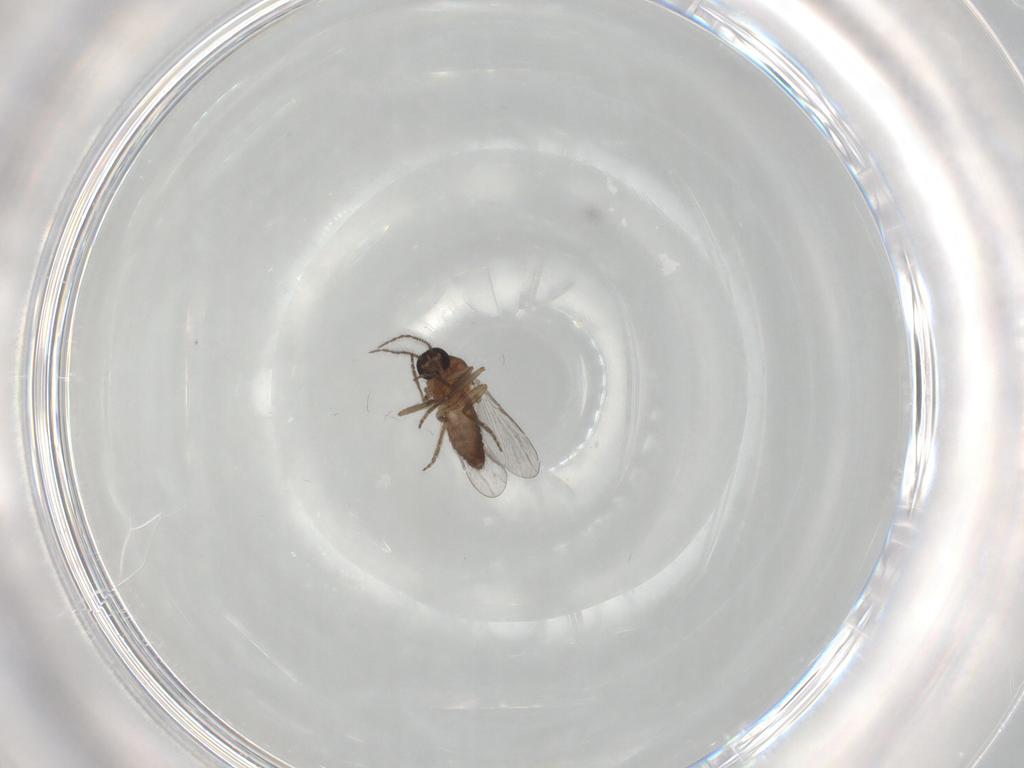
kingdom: Animalia
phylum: Arthropoda
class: Insecta
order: Diptera
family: Ceratopogonidae
